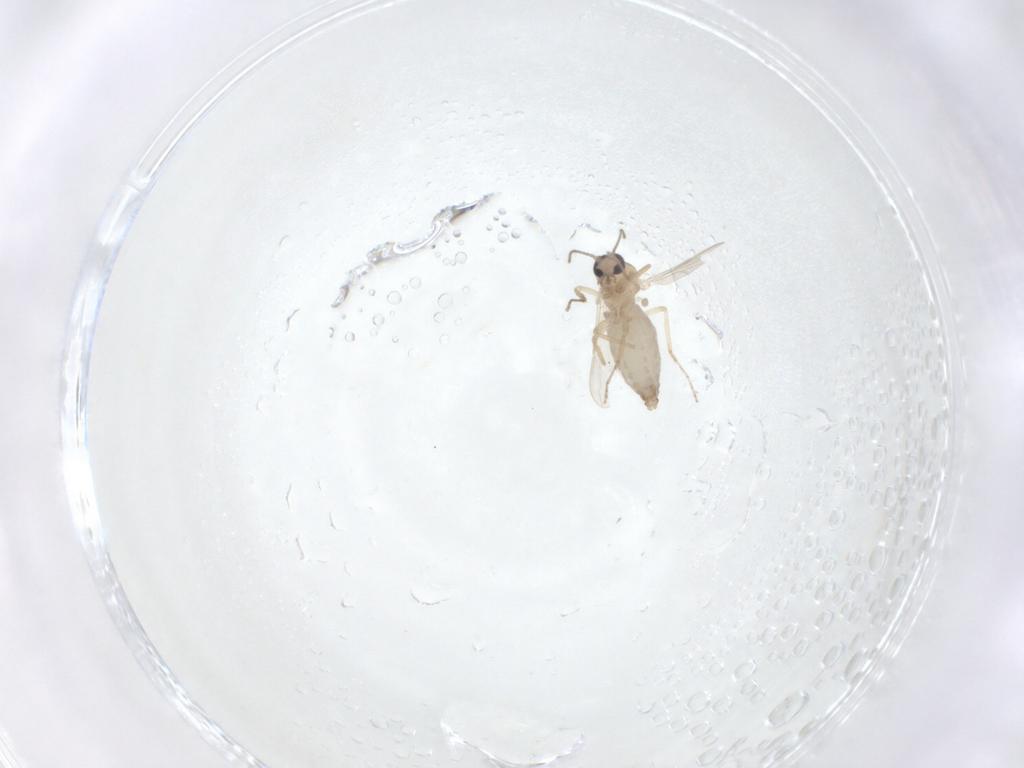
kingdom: Animalia
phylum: Arthropoda
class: Insecta
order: Diptera
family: Ceratopogonidae
